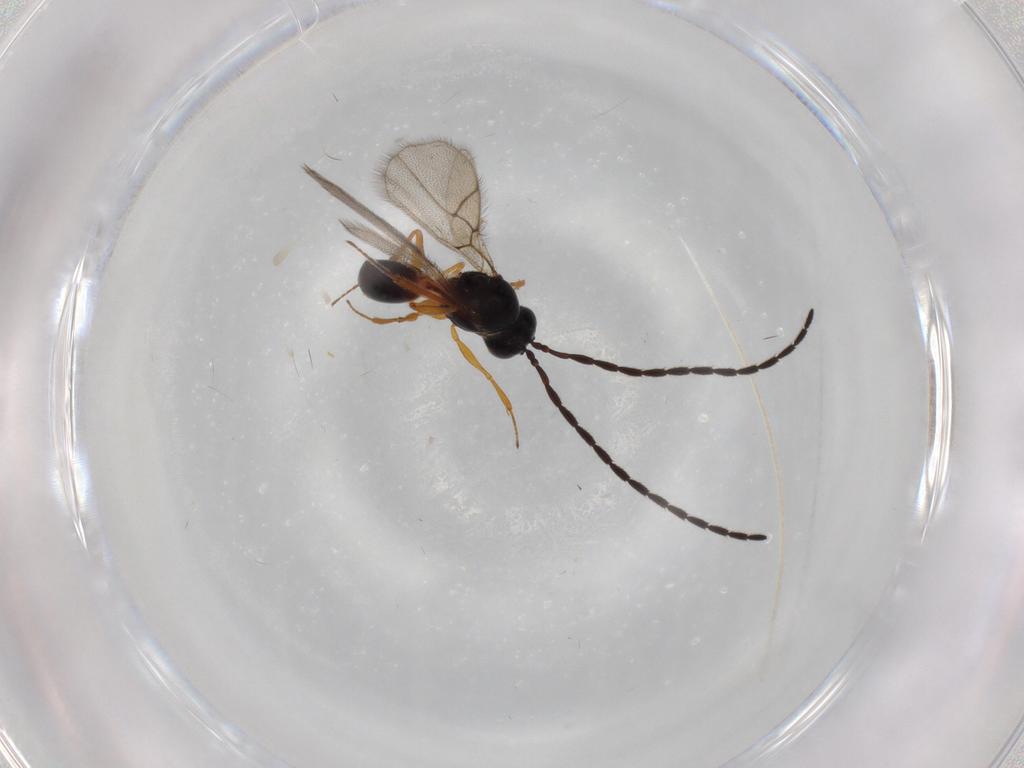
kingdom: Animalia
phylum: Arthropoda
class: Insecta
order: Hymenoptera
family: Figitidae
